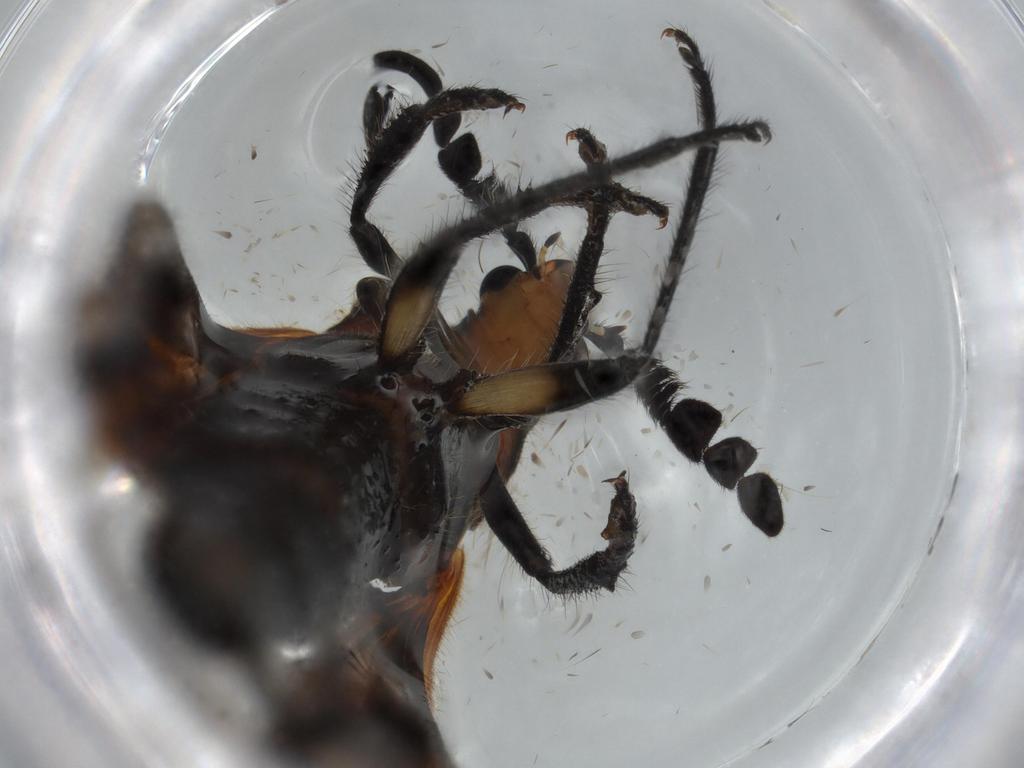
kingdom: Animalia
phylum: Arthropoda
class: Insecta
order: Coleoptera
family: Cleridae
